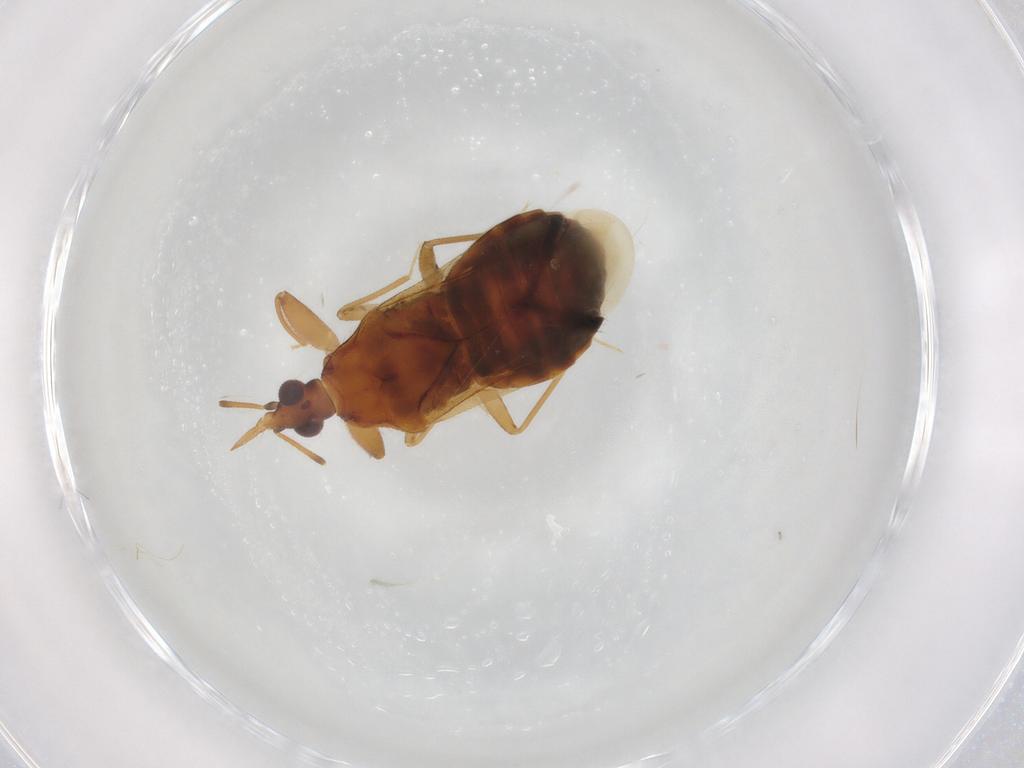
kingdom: Animalia
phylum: Arthropoda
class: Insecta
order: Hemiptera
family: Anthocoridae
